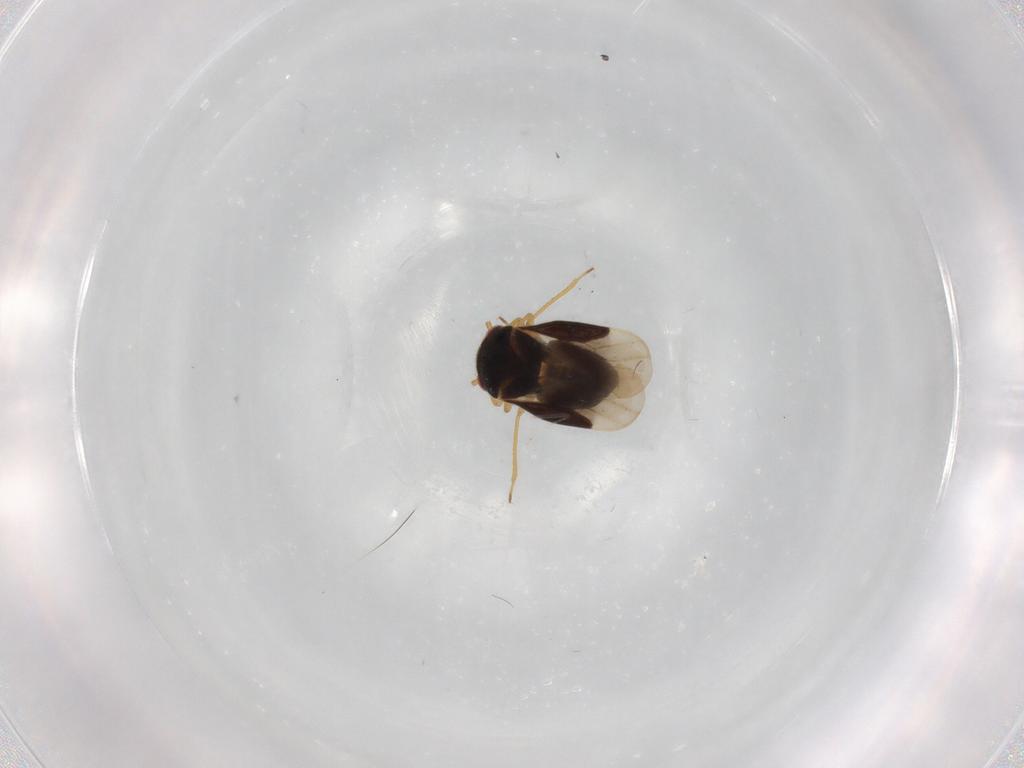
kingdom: Animalia
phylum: Arthropoda
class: Insecta
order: Hemiptera
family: Schizopteridae
